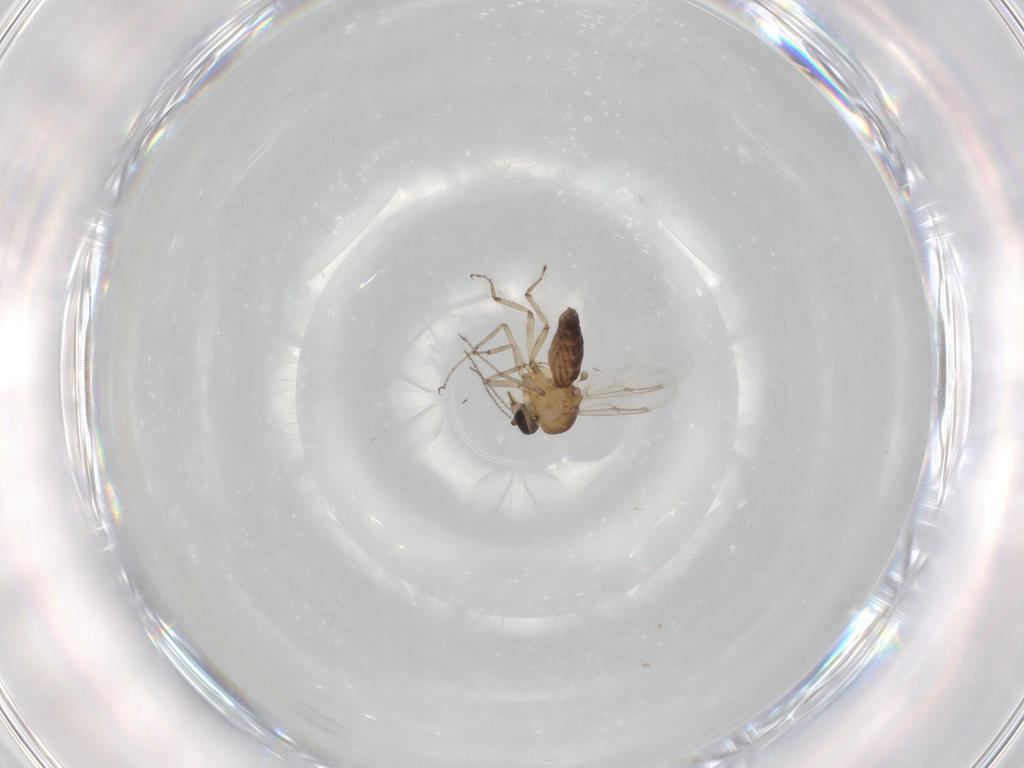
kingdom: Animalia
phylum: Arthropoda
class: Insecta
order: Diptera
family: Ceratopogonidae
